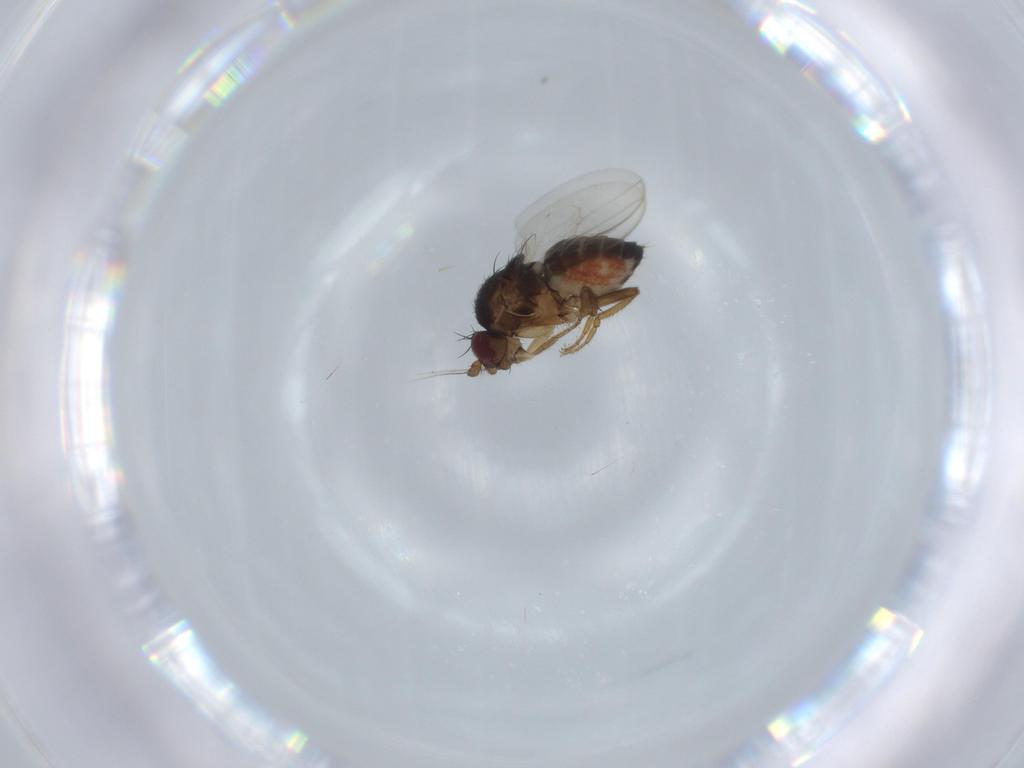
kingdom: Animalia
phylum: Arthropoda
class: Insecta
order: Diptera
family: Sphaeroceridae
